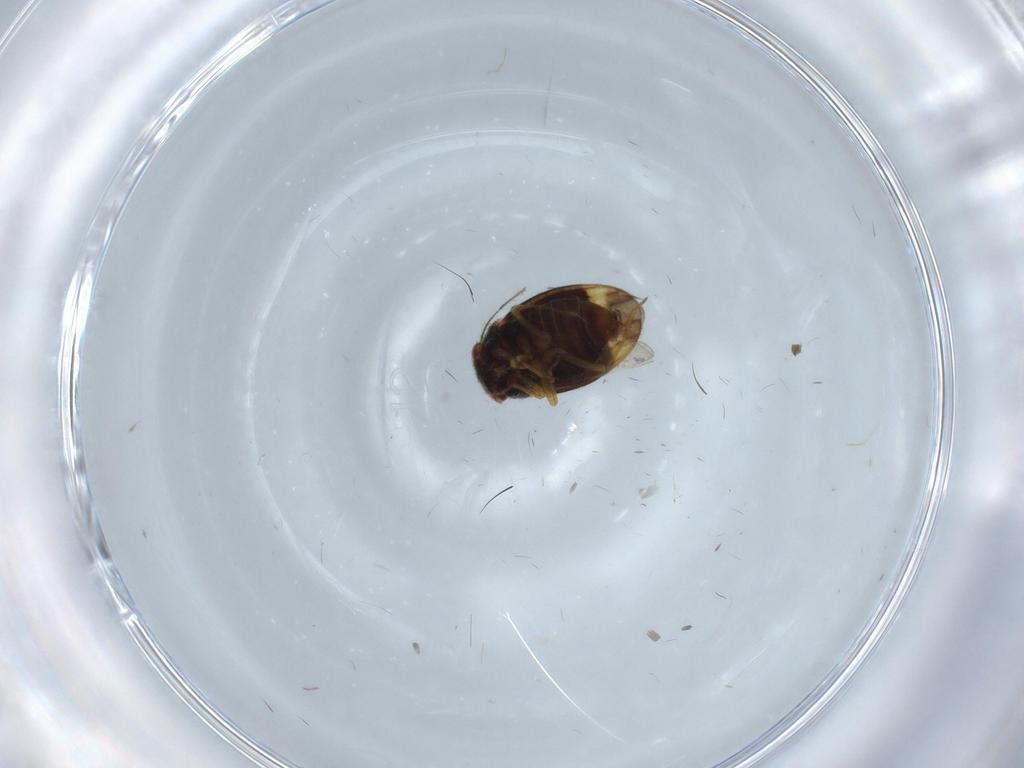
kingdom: Animalia
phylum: Arthropoda
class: Insecta
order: Hemiptera
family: Schizopteridae
